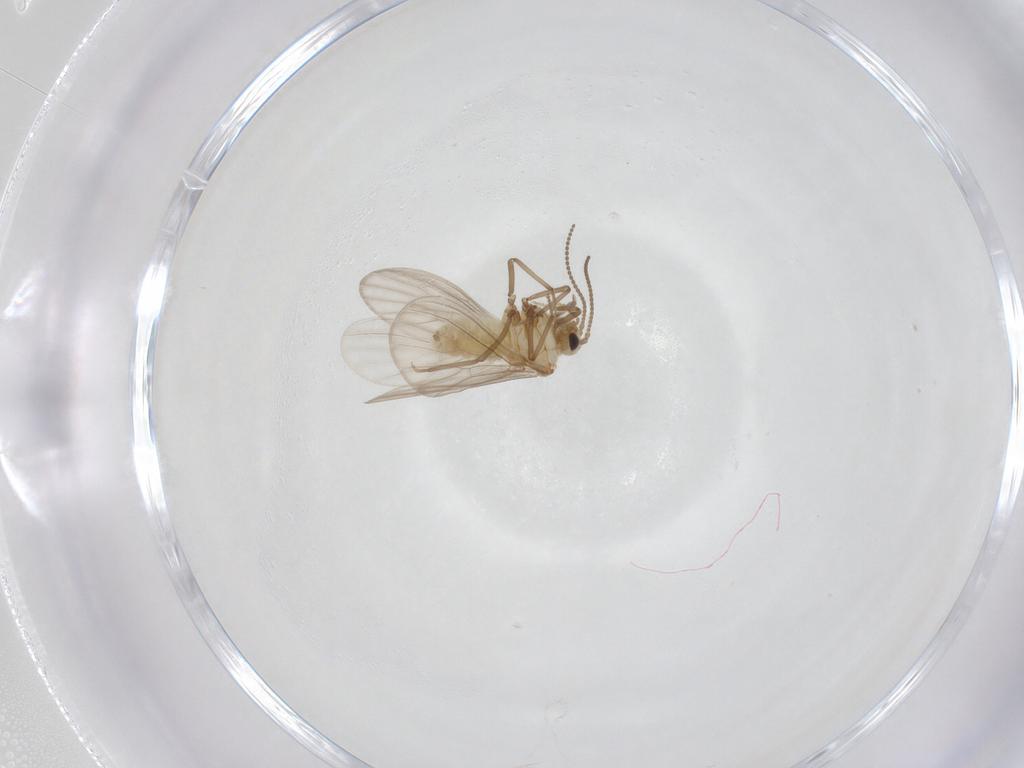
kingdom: Animalia
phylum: Arthropoda
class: Insecta
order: Neuroptera
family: Coniopterygidae
